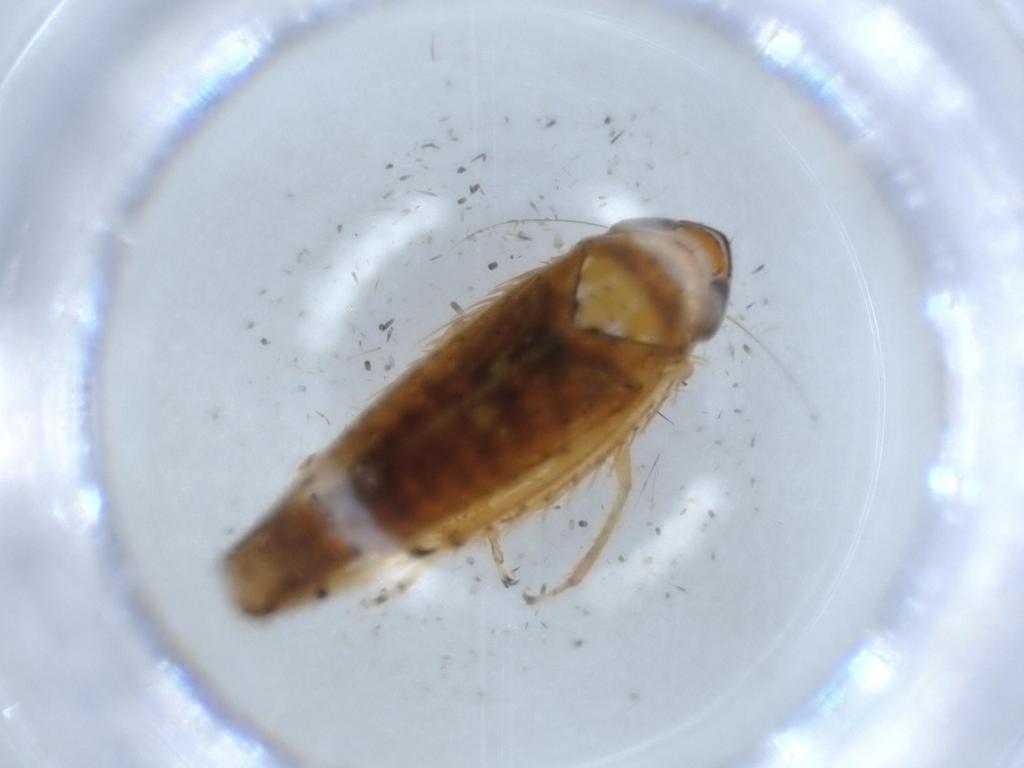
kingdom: Animalia
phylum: Arthropoda
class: Insecta
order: Hemiptera
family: Cicadellidae
